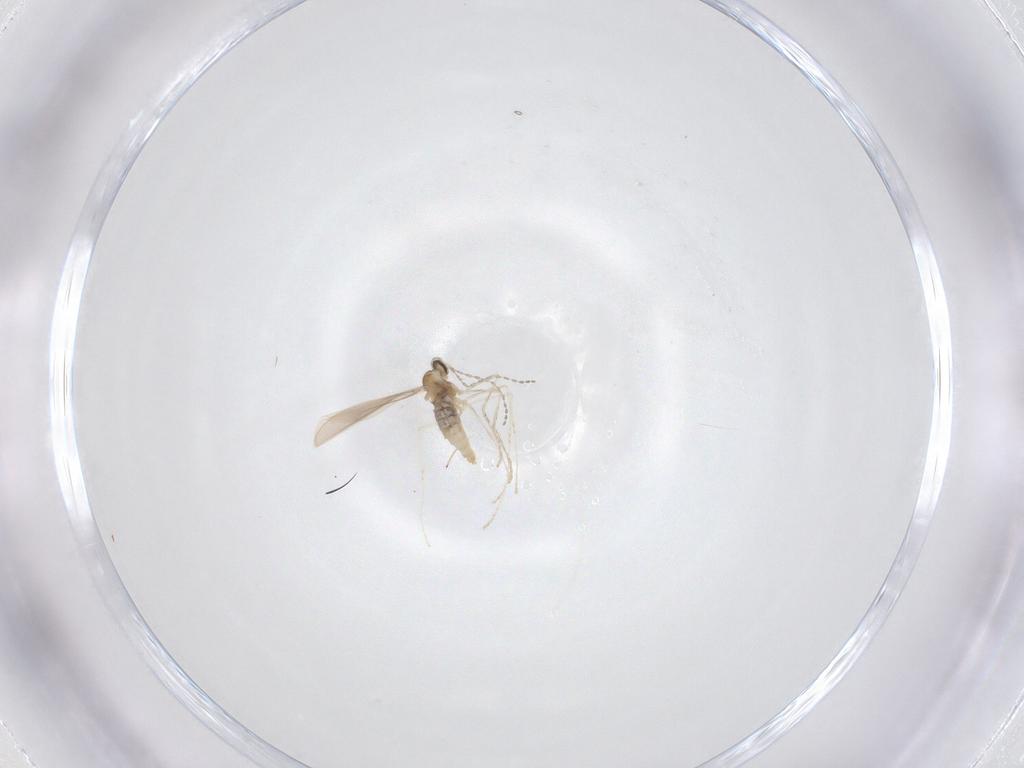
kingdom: Animalia
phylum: Arthropoda
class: Insecta
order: Diptera
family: Cecidomyiidae
